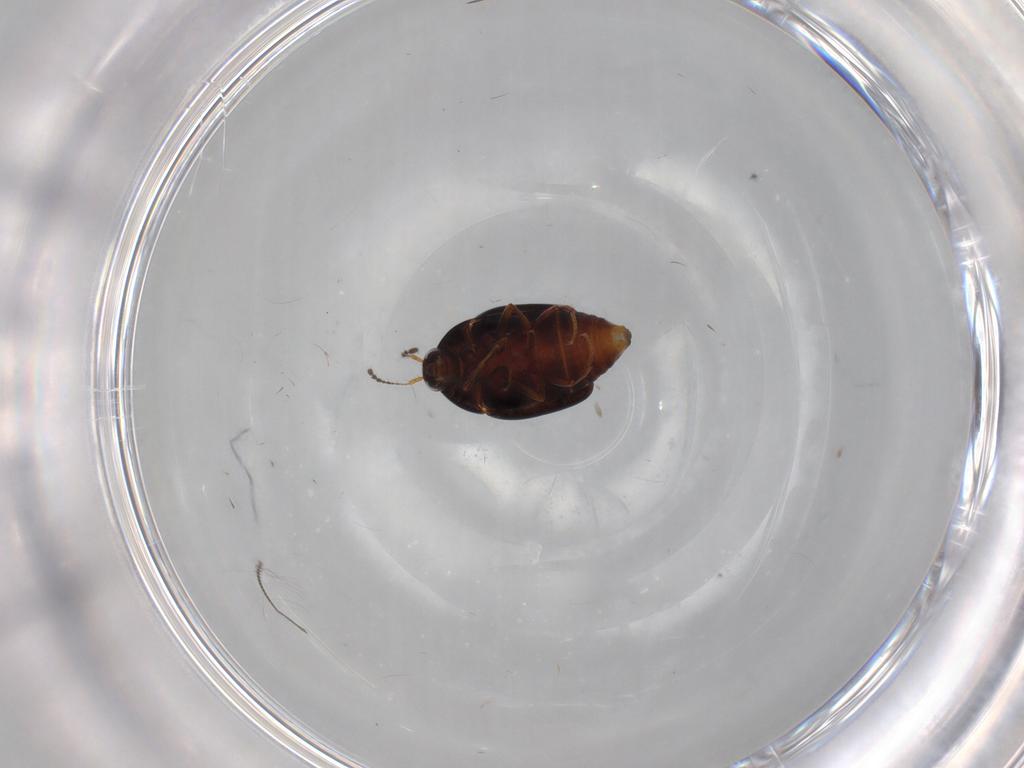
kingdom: Animalia
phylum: Arthropoda
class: Insecta
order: Coleoptera
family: Staphylinidae
